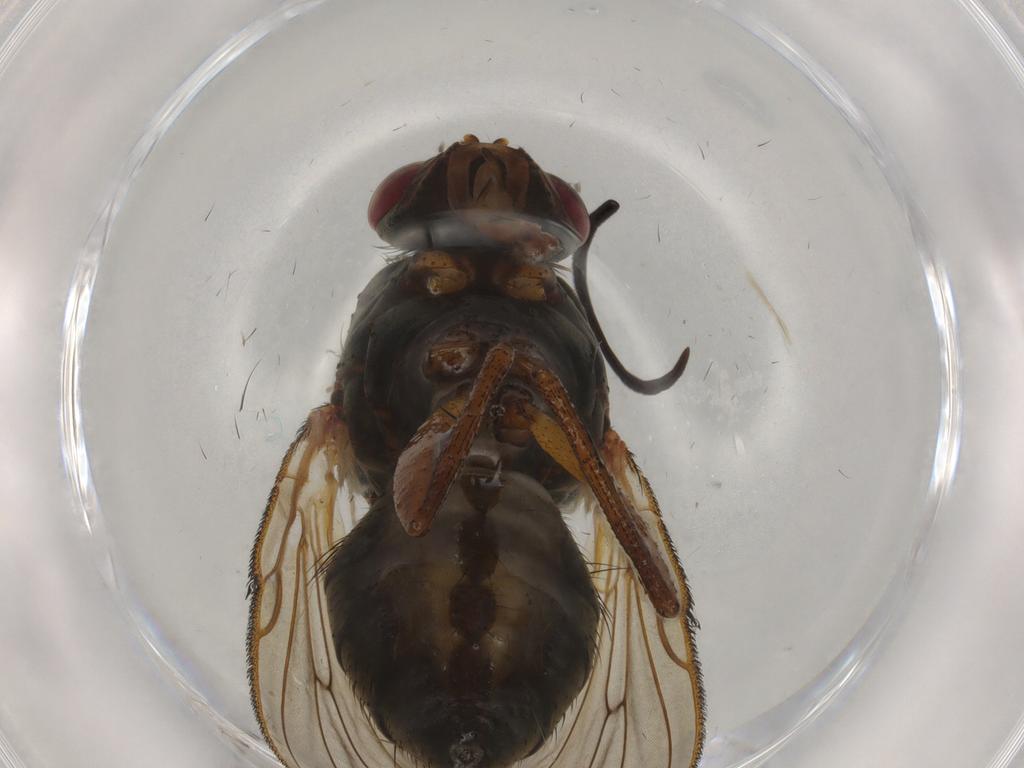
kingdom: Animalia
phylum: Arthropoda
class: Insecta
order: Diptera
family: Anthomyiidae
